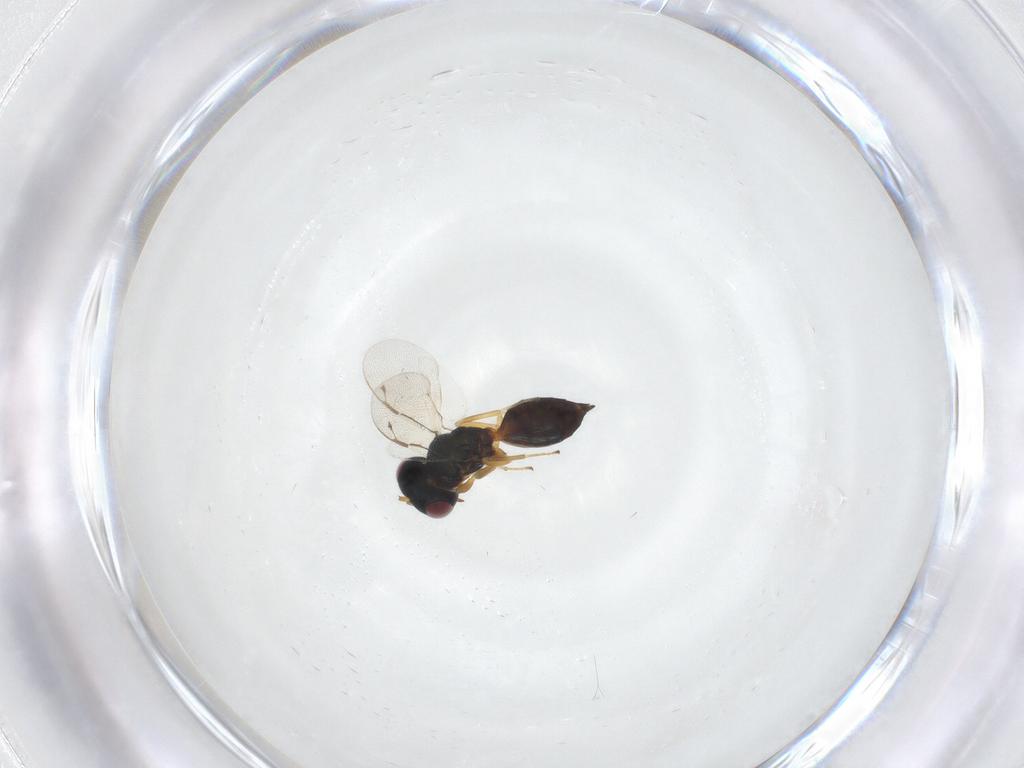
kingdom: Animalia
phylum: Arthropoda
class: Insecta
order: Hymenoptera
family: Pteromalidae
